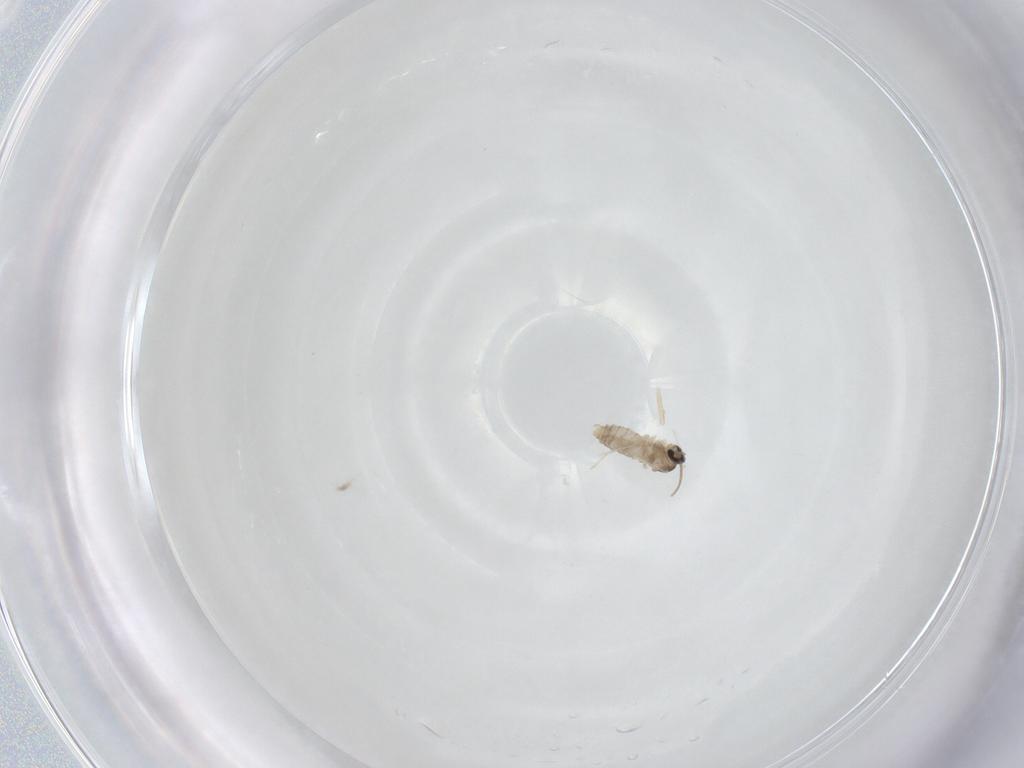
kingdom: Animalia
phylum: Arthropoda
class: Insecta
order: Diptera
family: Cecidomyiidae
